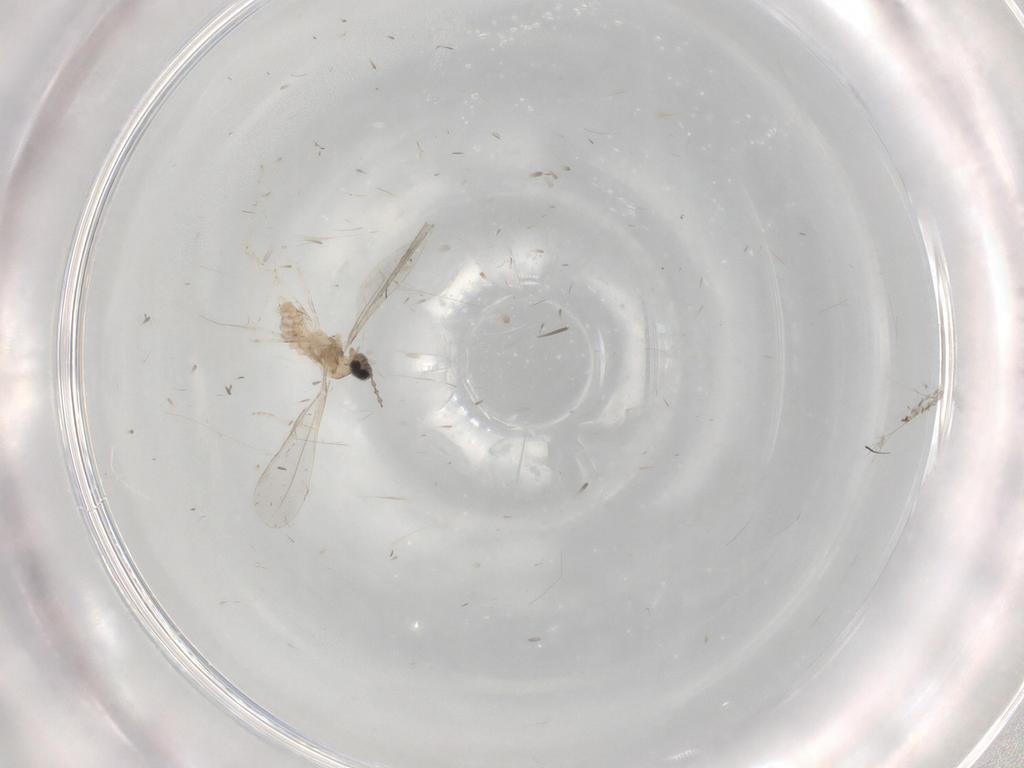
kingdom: Animalia
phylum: Arthropoda
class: Insecta
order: Diptera
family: Cecidomyiidae
